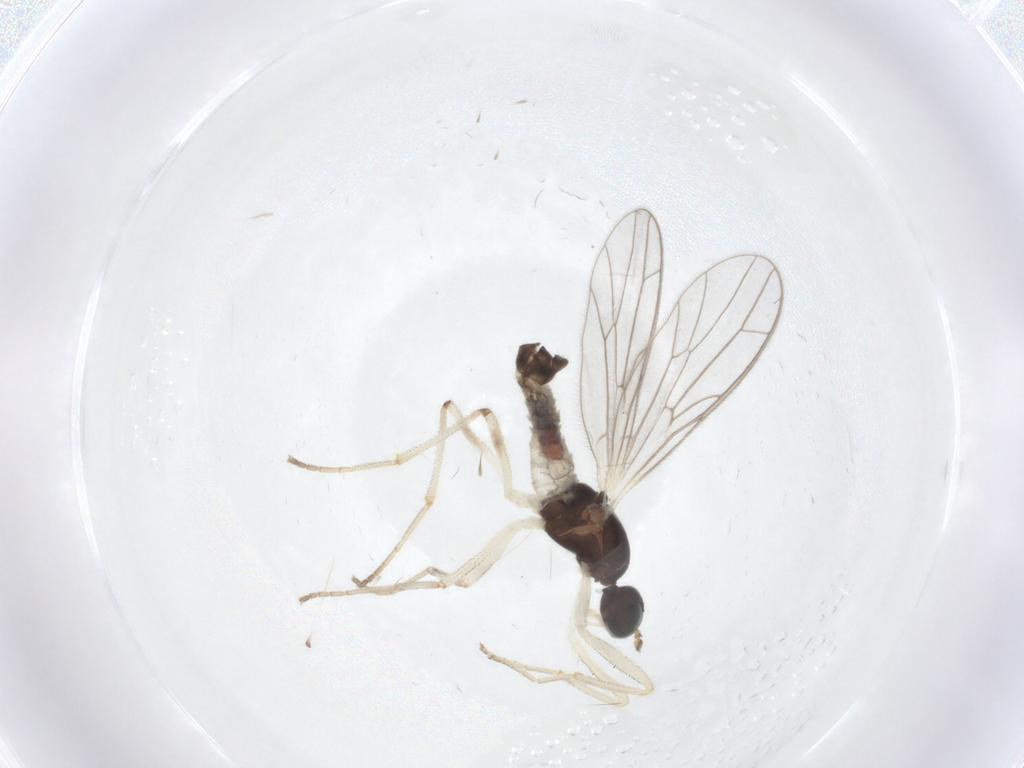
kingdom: Animalia
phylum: Arthropoda
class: Insecta
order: Diptera
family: Empididae
